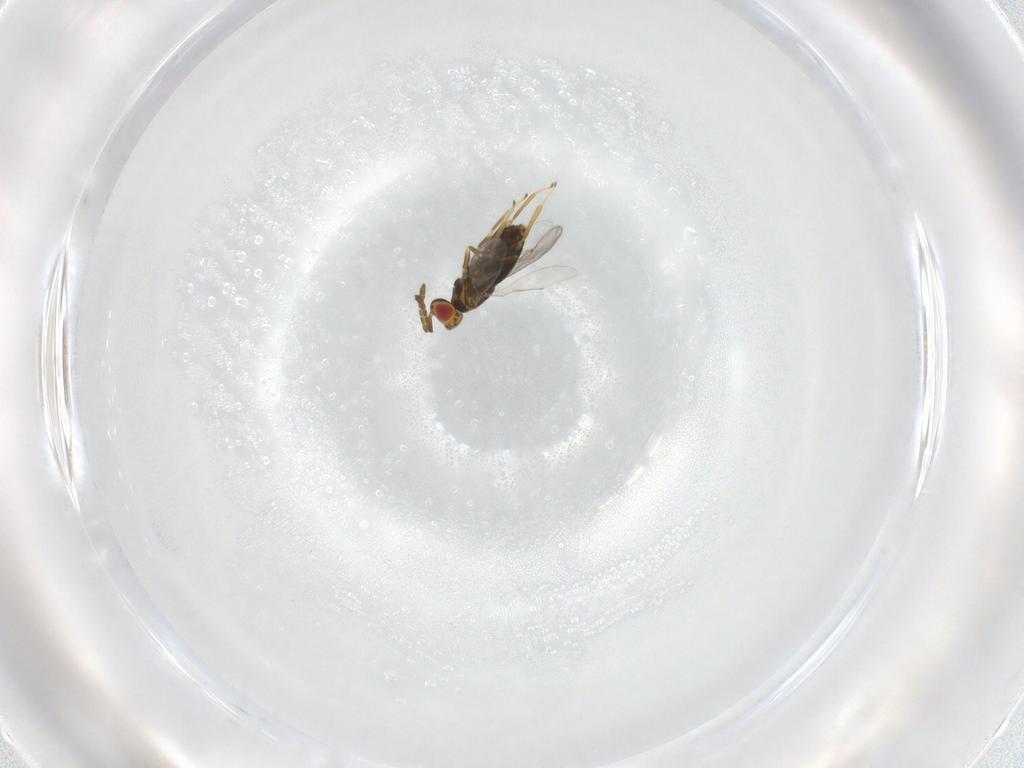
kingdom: Animalia
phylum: Arthropoda
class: Insecta
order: Hymenoptera
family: Aphelinidae
